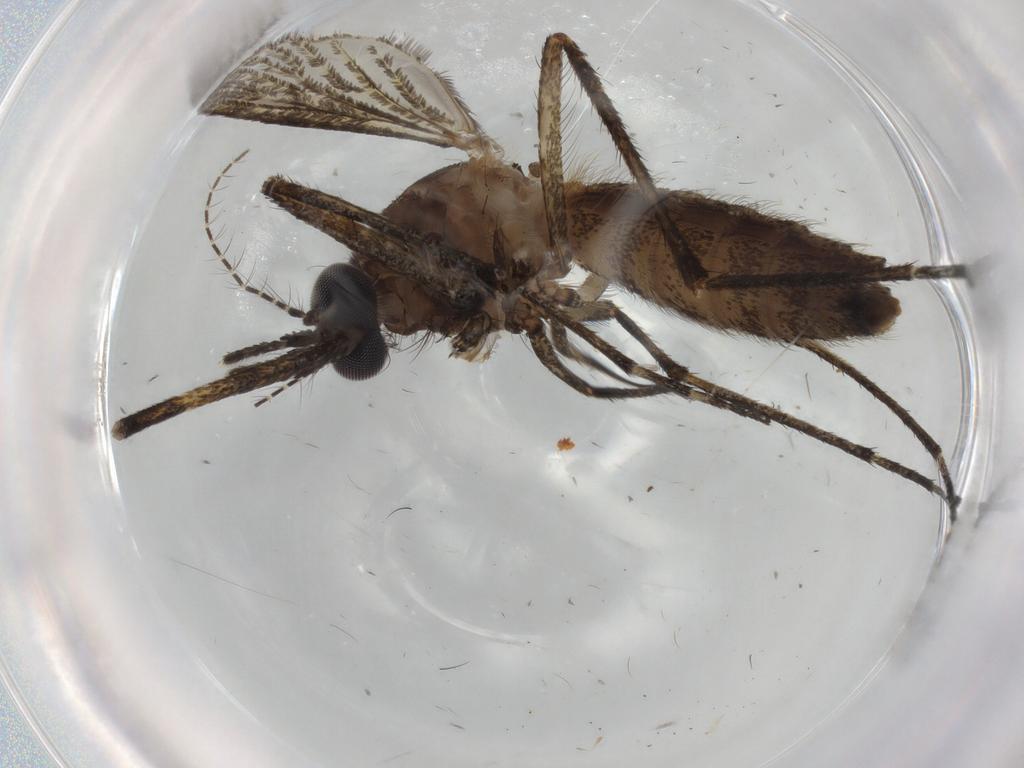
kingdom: Animalia
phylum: Arthropoda
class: Insecta
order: Diptera
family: Culicidae
